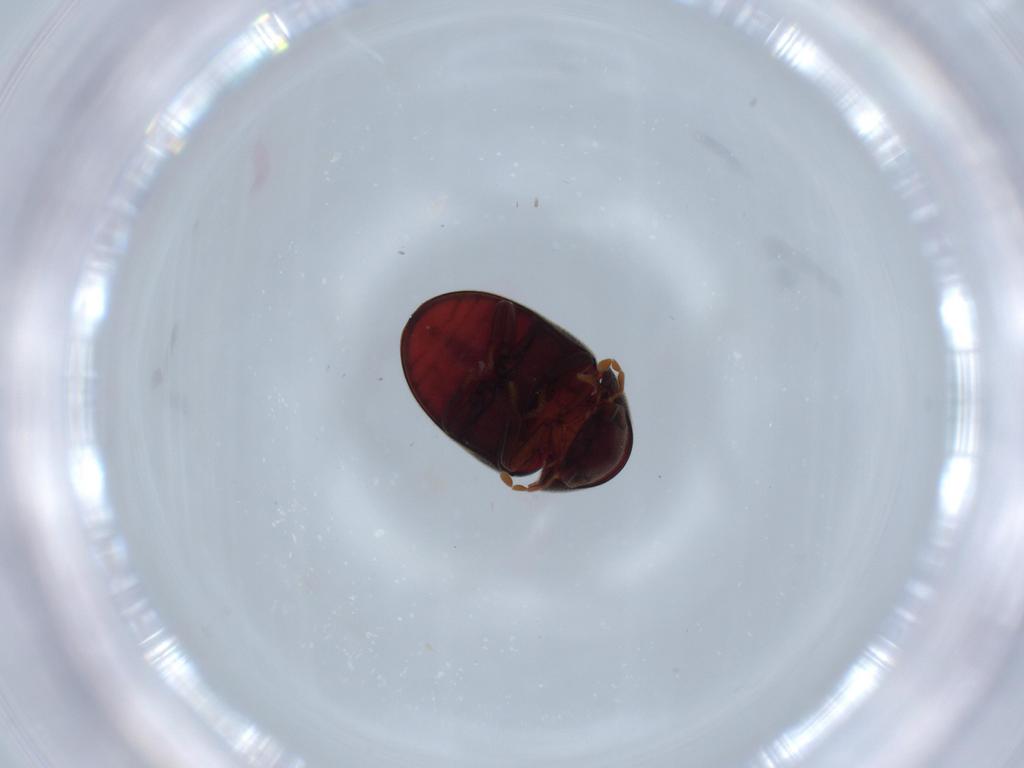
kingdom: Animalia
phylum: Arthropoda
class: Insecta
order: Coleoptera
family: Ptinidae
